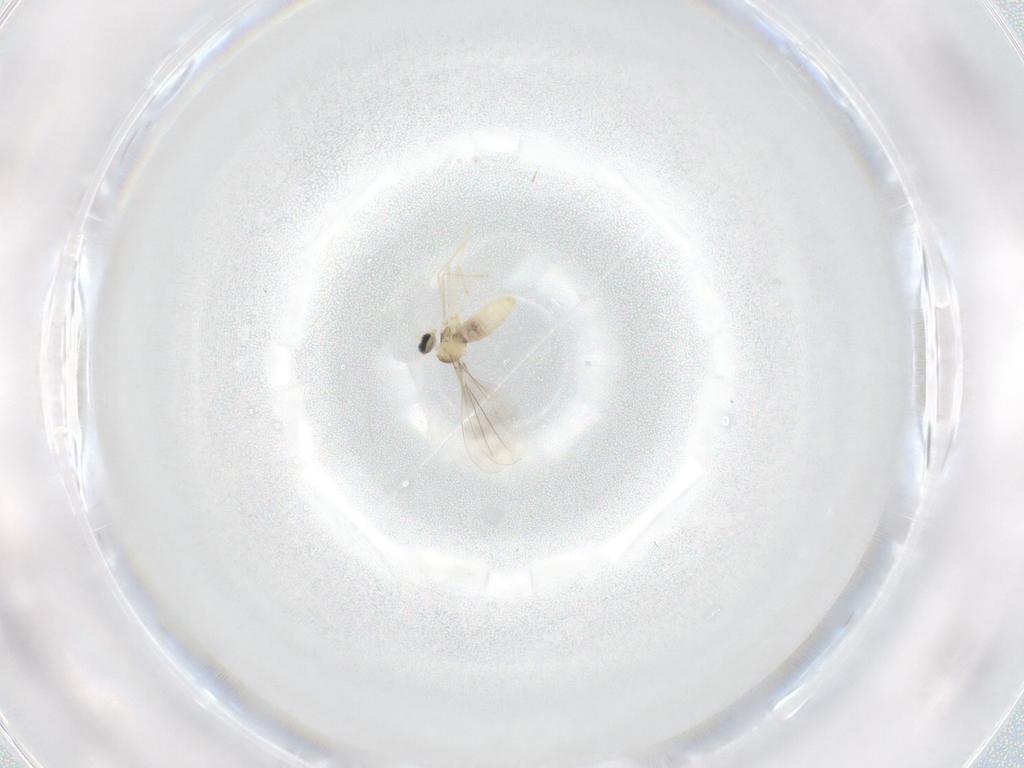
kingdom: Animalia
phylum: Arthropoda
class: Insecta
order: Diptera
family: Cecidomyiidae
